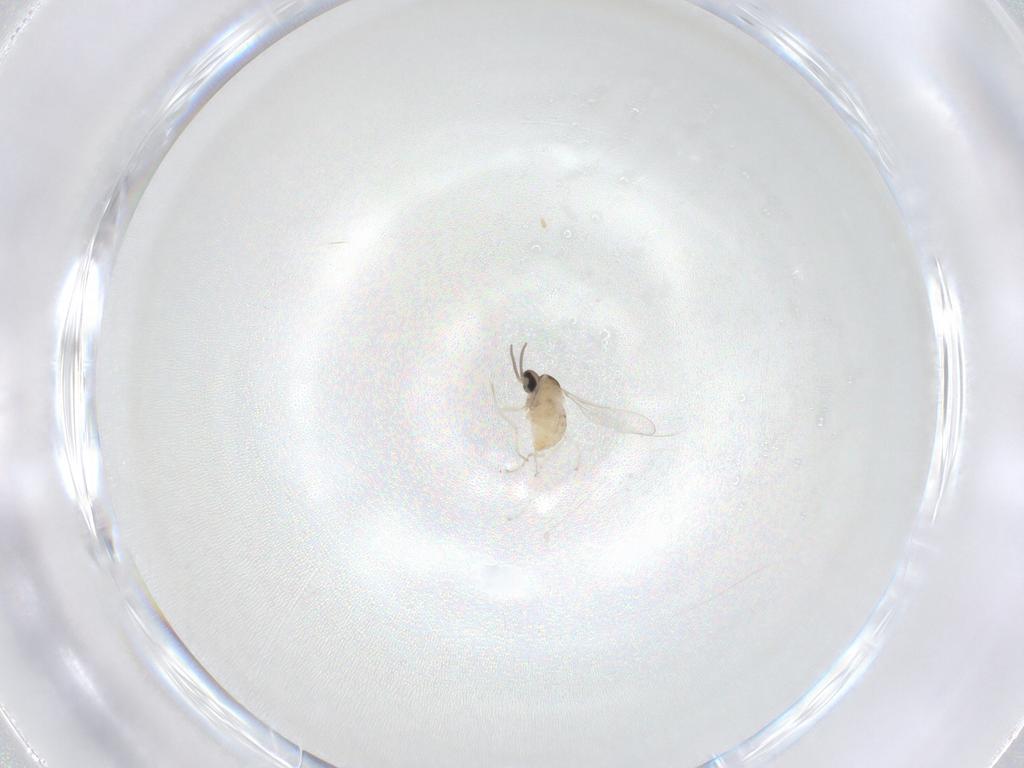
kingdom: Animalia
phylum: Arthropoda
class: Insecta
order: Diptera
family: Cecidomyiidae
